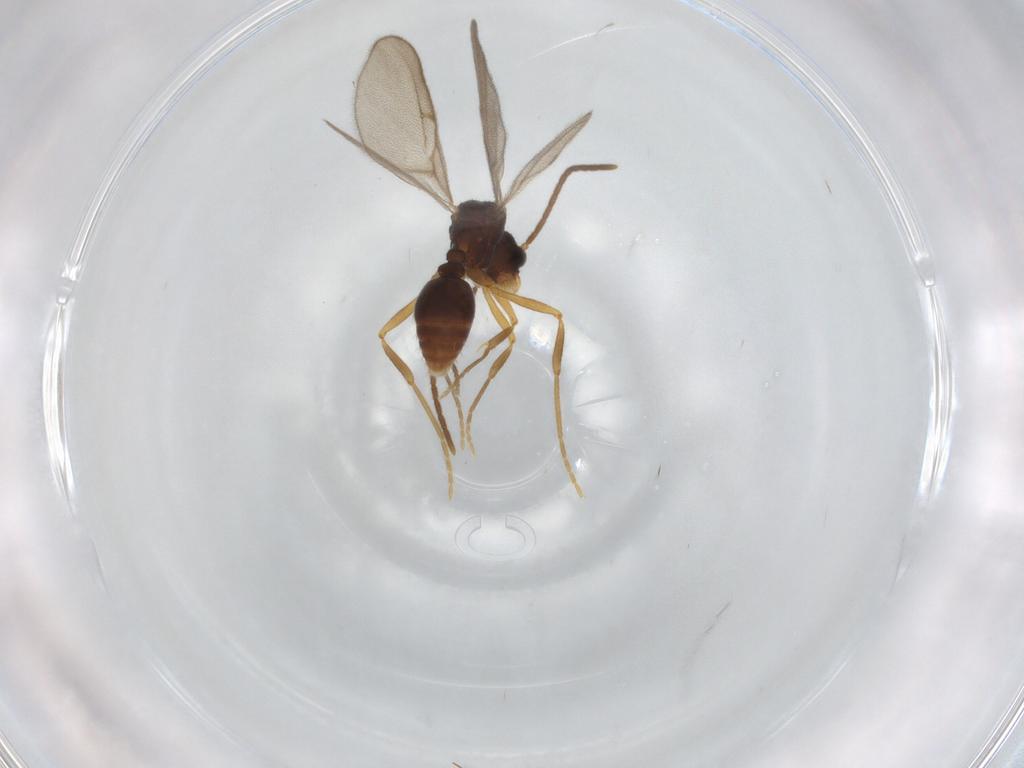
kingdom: Animalia
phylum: Arthropoda
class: Insecta
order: Hymenoptera
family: Formicidae
